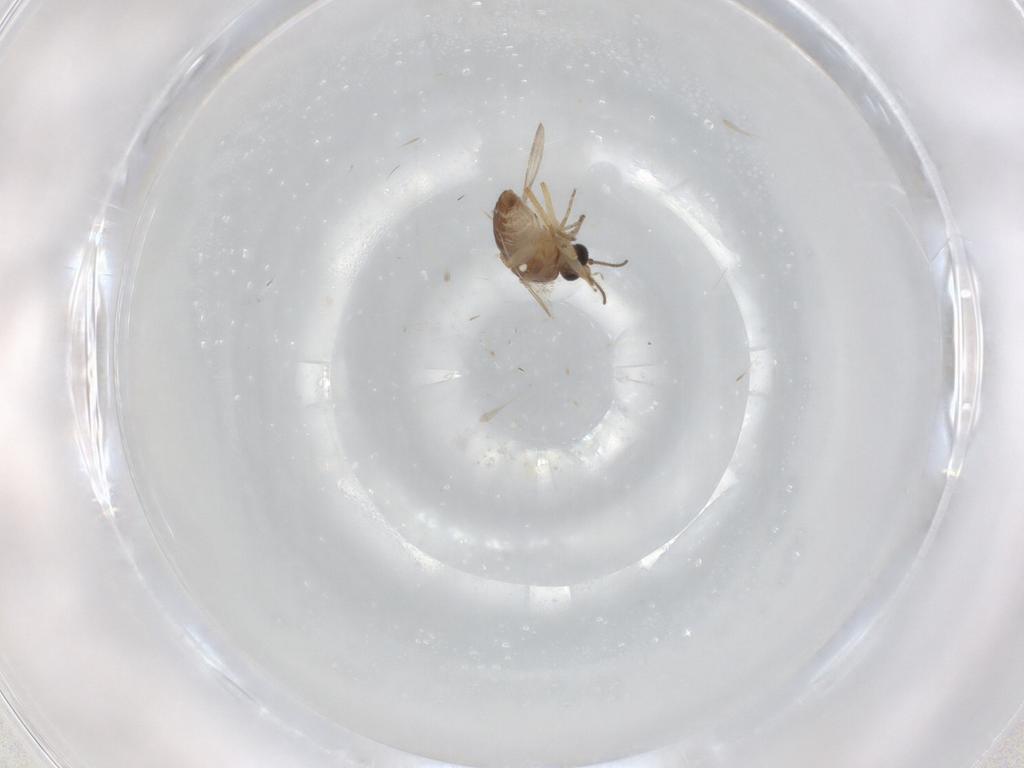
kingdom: Animalia
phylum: Arthropoda
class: Insecta
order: Diptera
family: Ceratopogonidae
